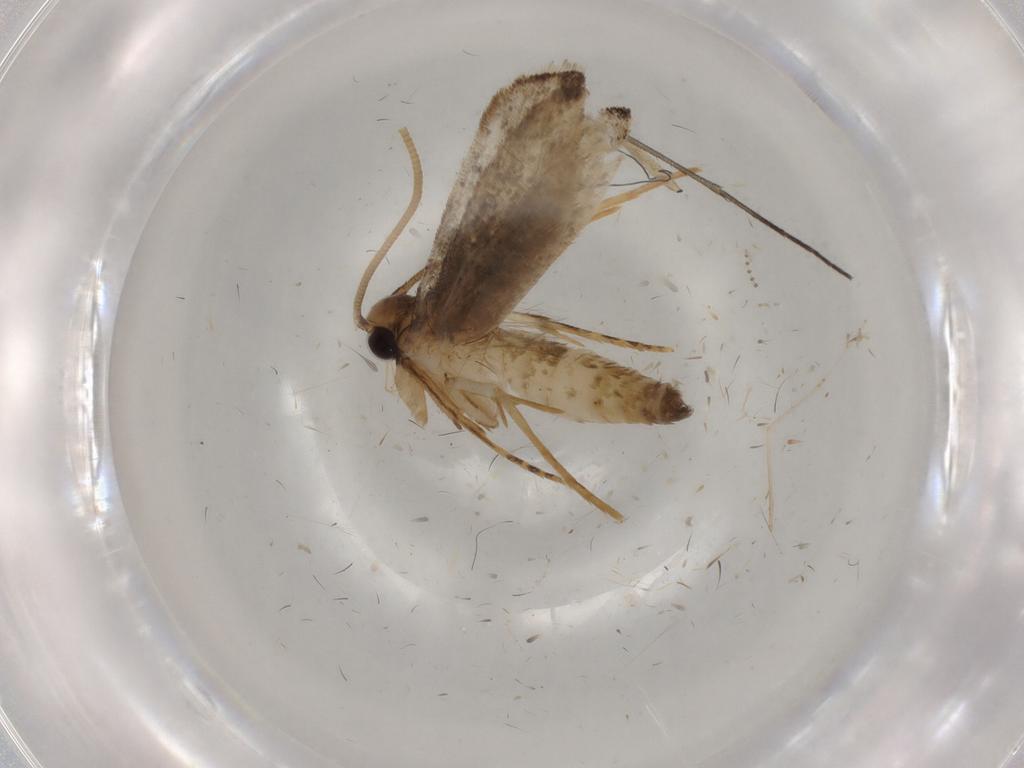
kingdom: Animalia
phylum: Arthropoda
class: Insecta
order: Lepidoptera
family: Tineidae
